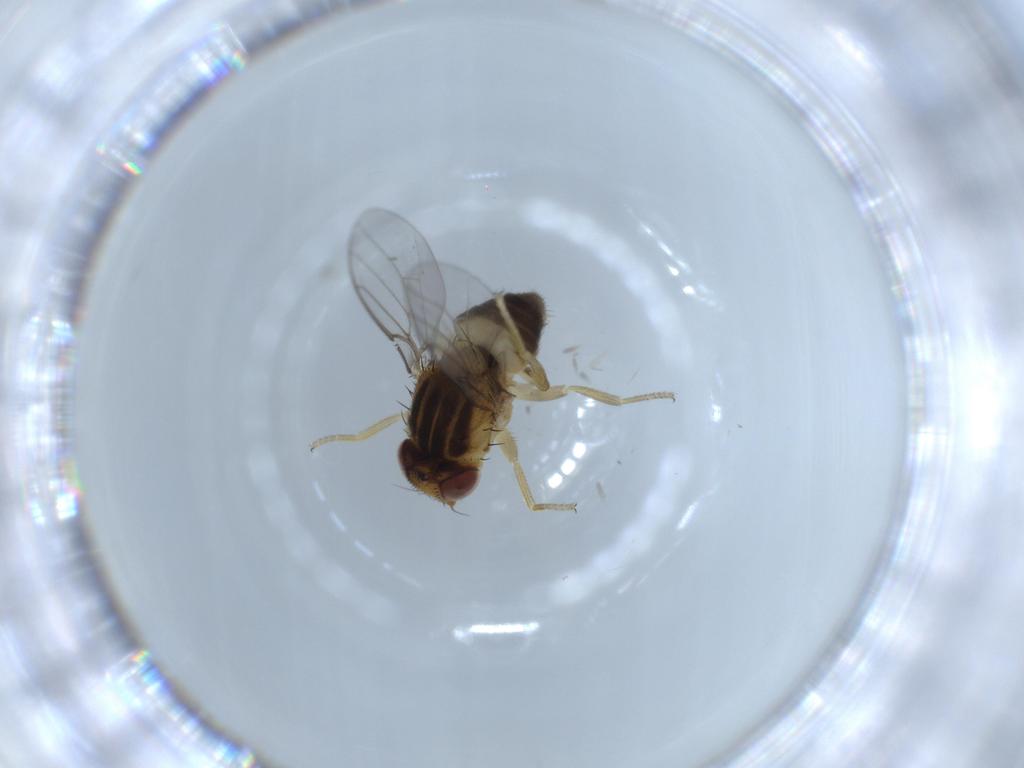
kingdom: Animalia
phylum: Arthropoda
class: Insecta
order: Diptera
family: Chloropidae
